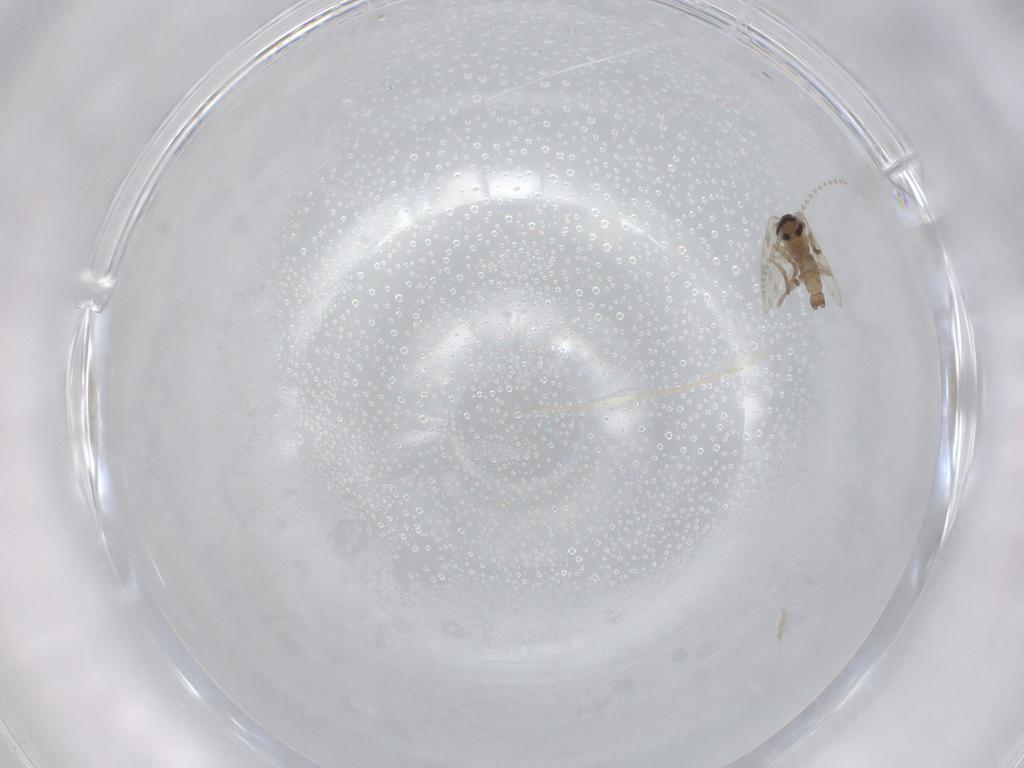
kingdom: Animalia
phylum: Arthropoda
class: Insecta
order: Diptera
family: Psychodidae
